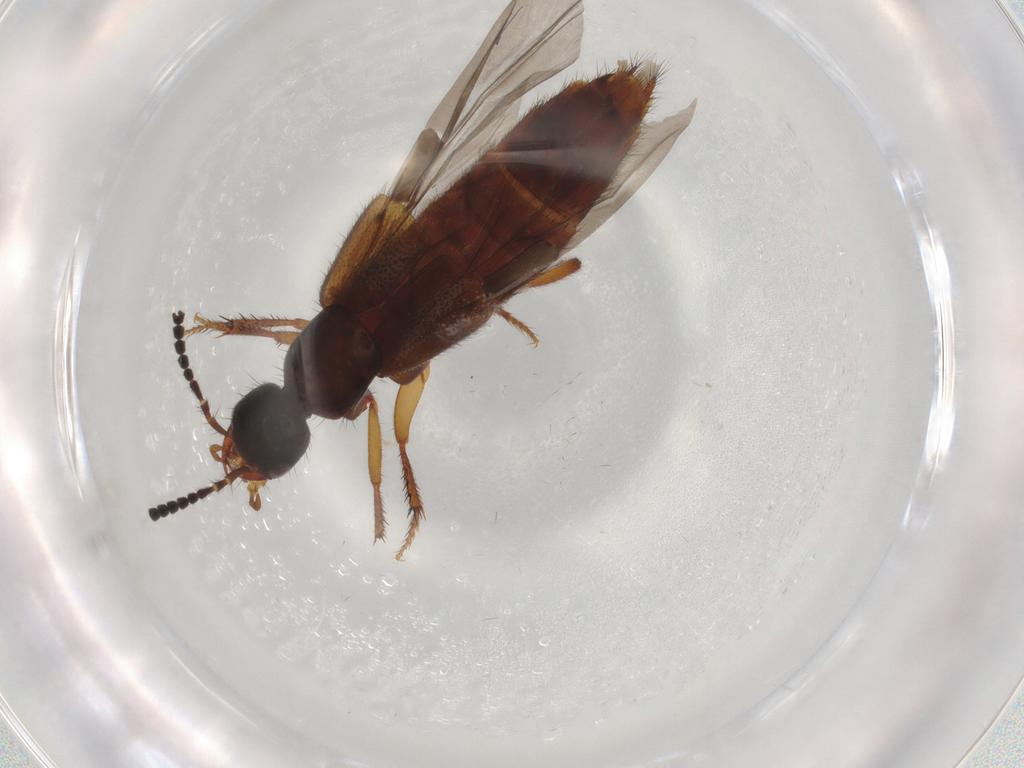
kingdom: Animalia
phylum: Arthropoda
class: Insecta
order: Coleoptera
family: Staphylinidae
